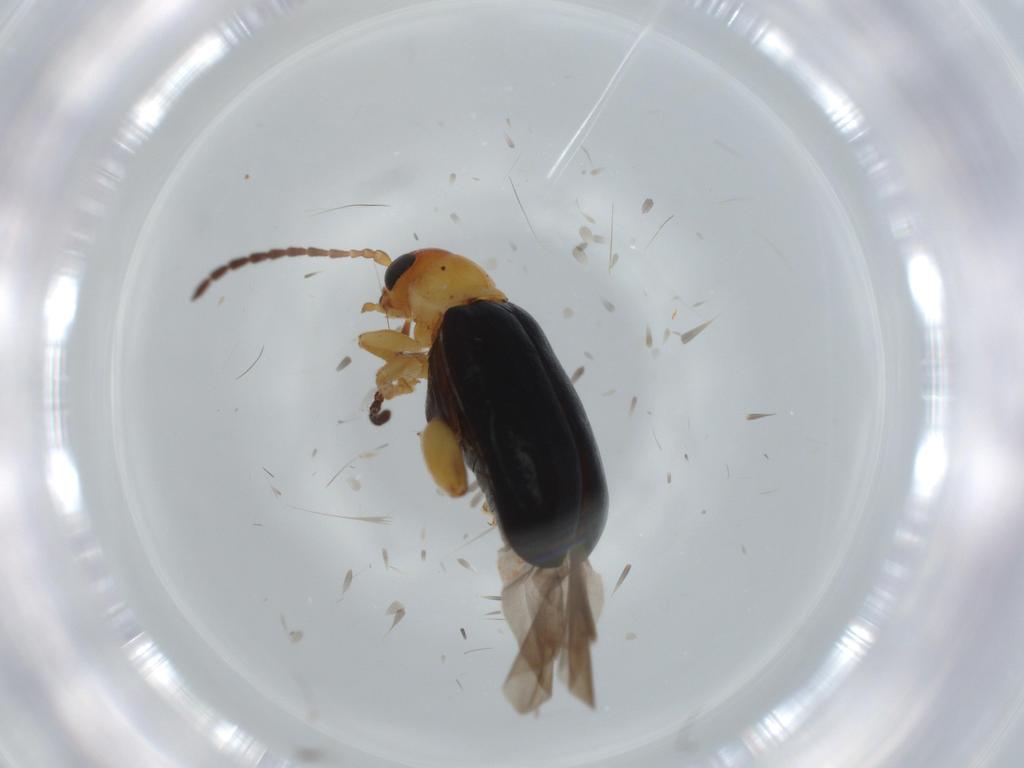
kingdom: Animalia
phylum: Arthropoda
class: Insecta
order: Coleoptera
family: Chrysomelidae
